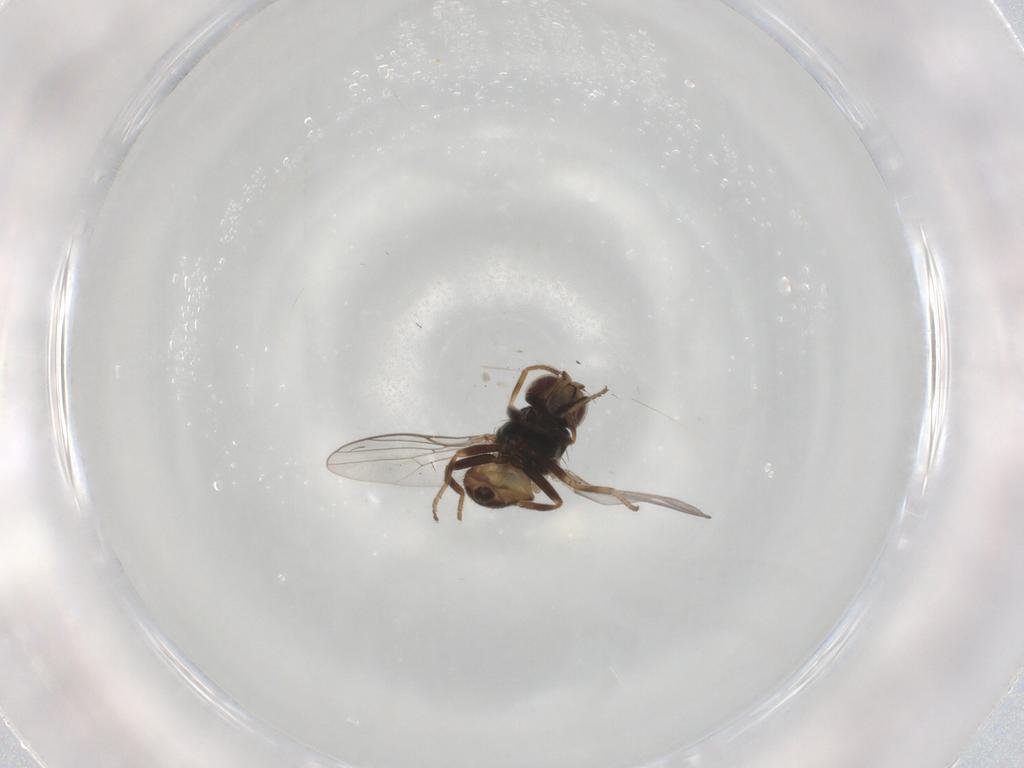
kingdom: Animalia
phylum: Arthropoda
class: Insecta
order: Diptera
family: Chloropidae
